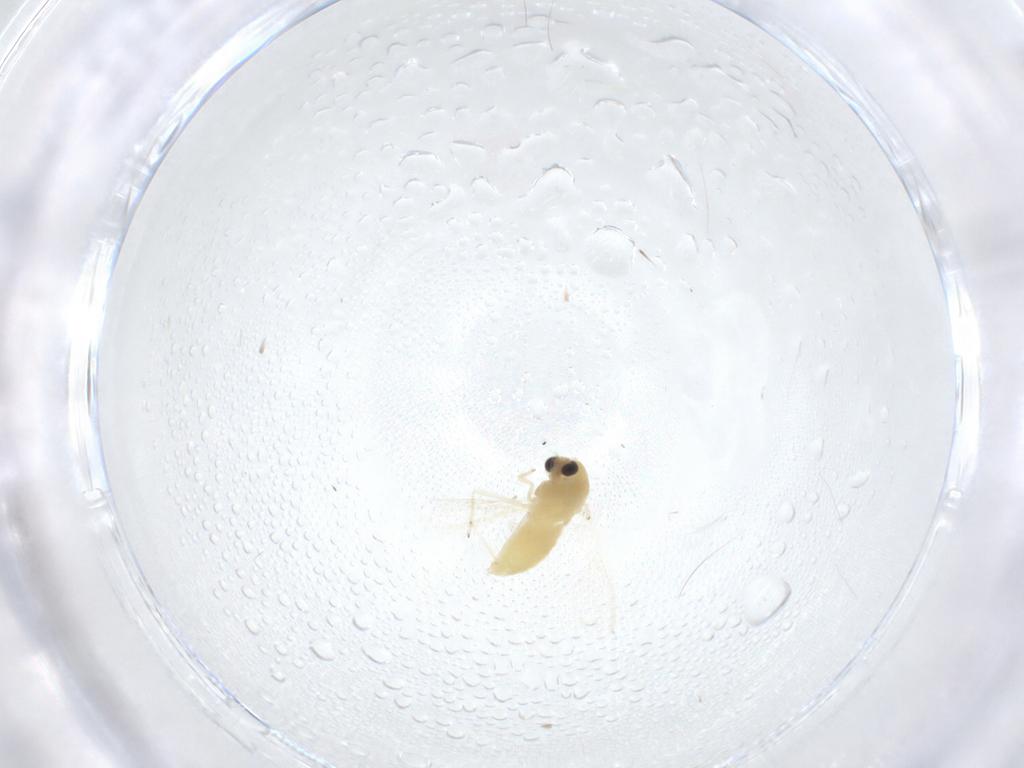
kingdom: Animalia
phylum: Arthropoda
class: Insecta
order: Diptera
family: Chironomidae
